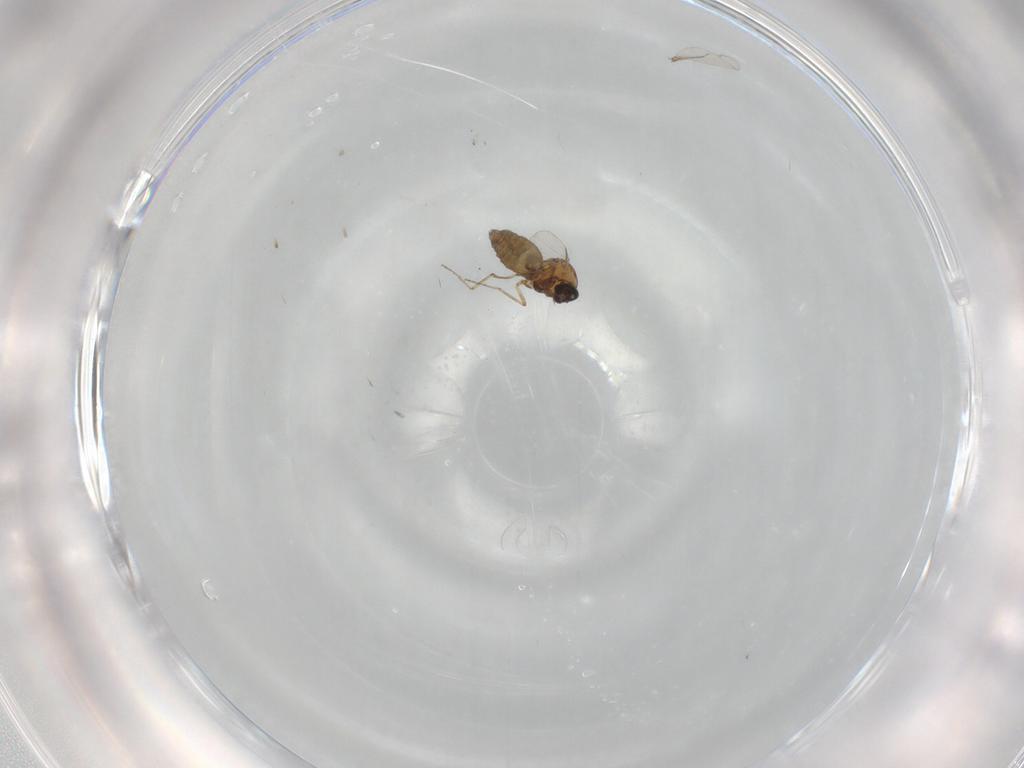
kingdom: Animalia
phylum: Arthropoda
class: Insecta
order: Diptera
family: Ceratopogonidae
